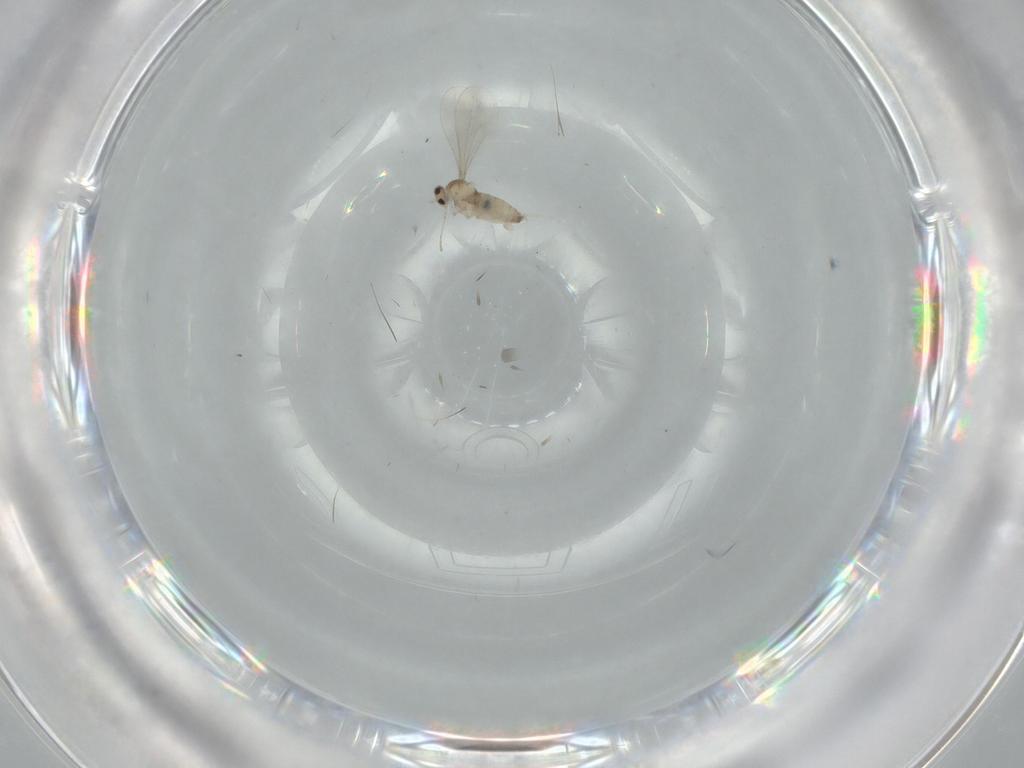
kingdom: Animalia
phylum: Arthropoda
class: Insecta
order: Diptera
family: Cecidomyiidae
